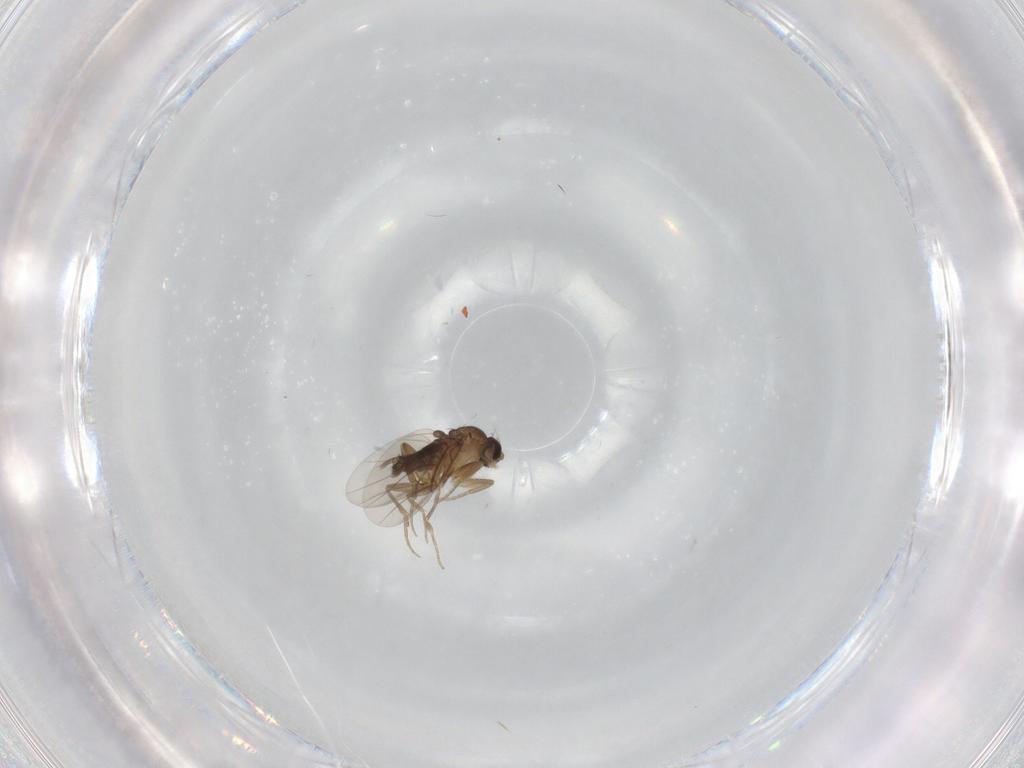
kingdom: Animalia
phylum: Arthropoda
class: Insecta
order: Diptera
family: Phoridae
